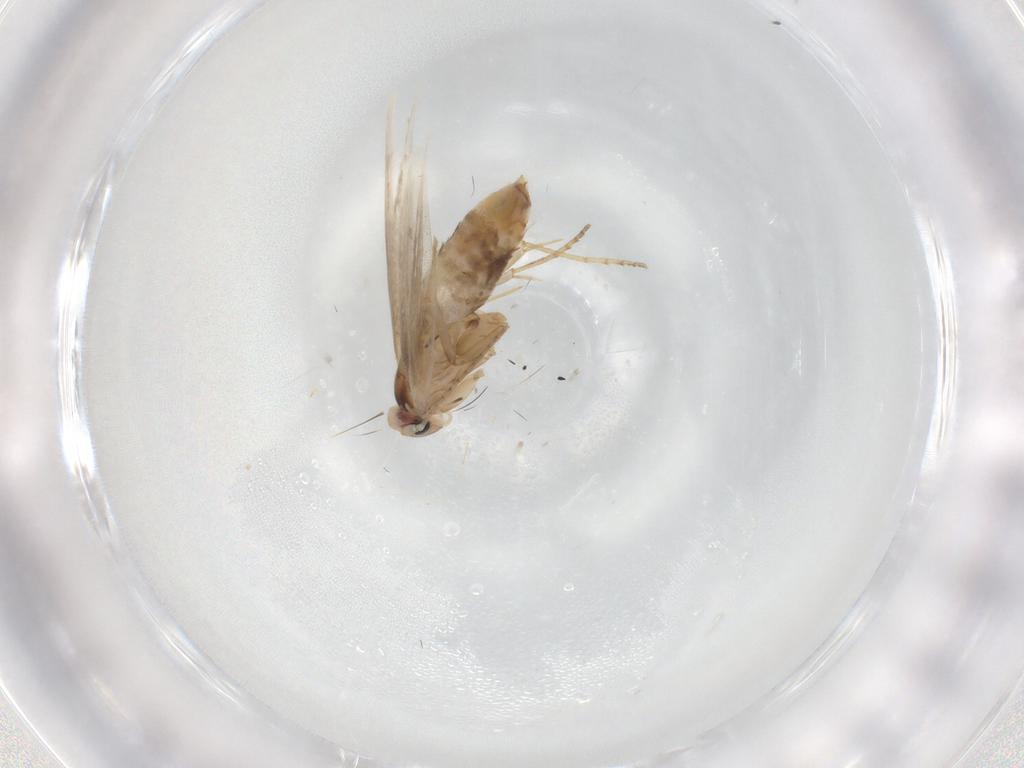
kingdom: Animalia
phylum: Arthropoda
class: Insecta
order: Lepidoptera
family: Bucculatricidae
